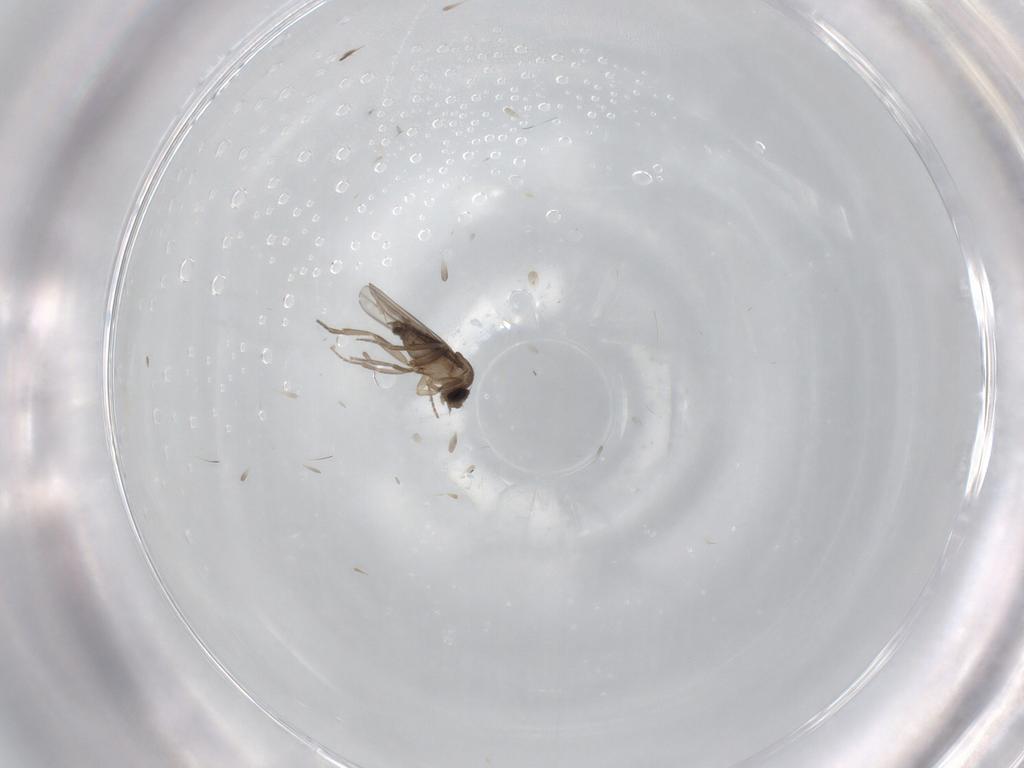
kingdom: Animalia
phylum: Arthropoda
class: Insecta
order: Diptera
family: Phoridae
